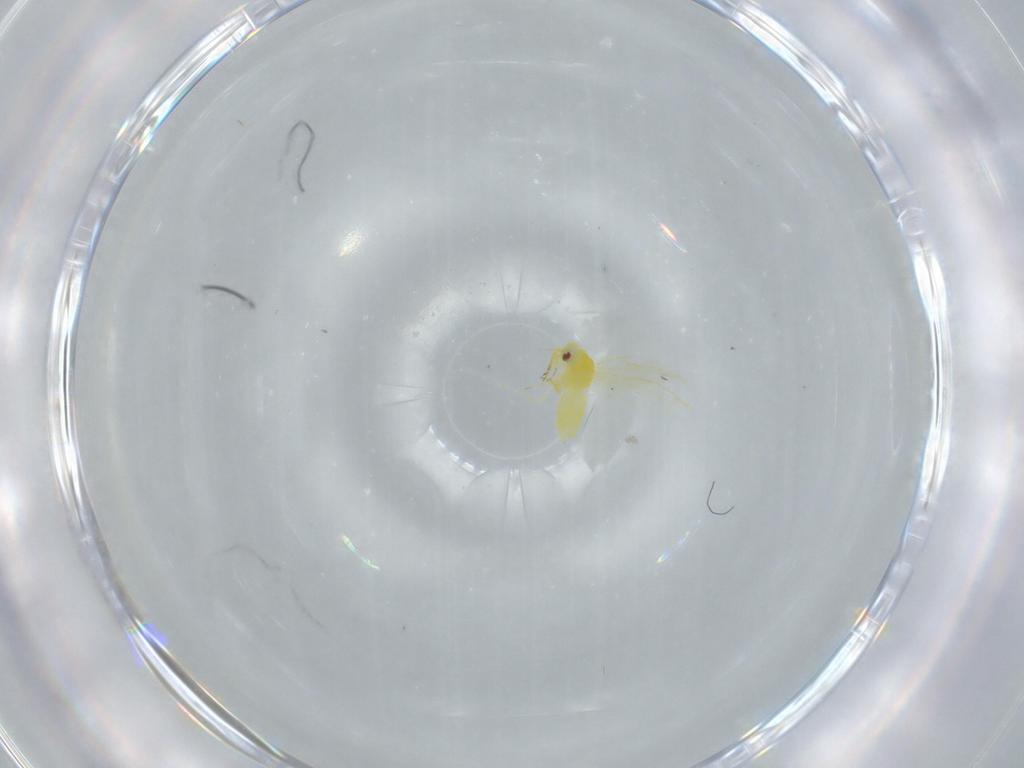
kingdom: Animalia
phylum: Arthropoda
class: Insecta
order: Hemiptera
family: Aleyrodidae
